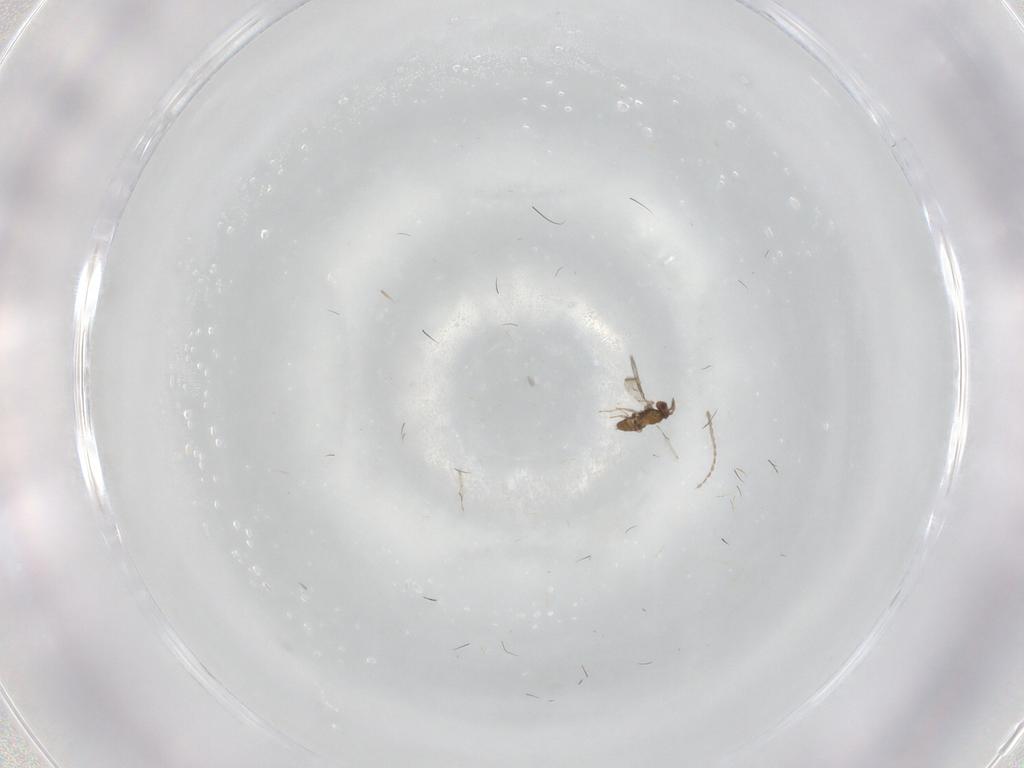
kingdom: Animalia
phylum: Arthropoda
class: Insecta
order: Diptera
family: Cecidomyiidae
